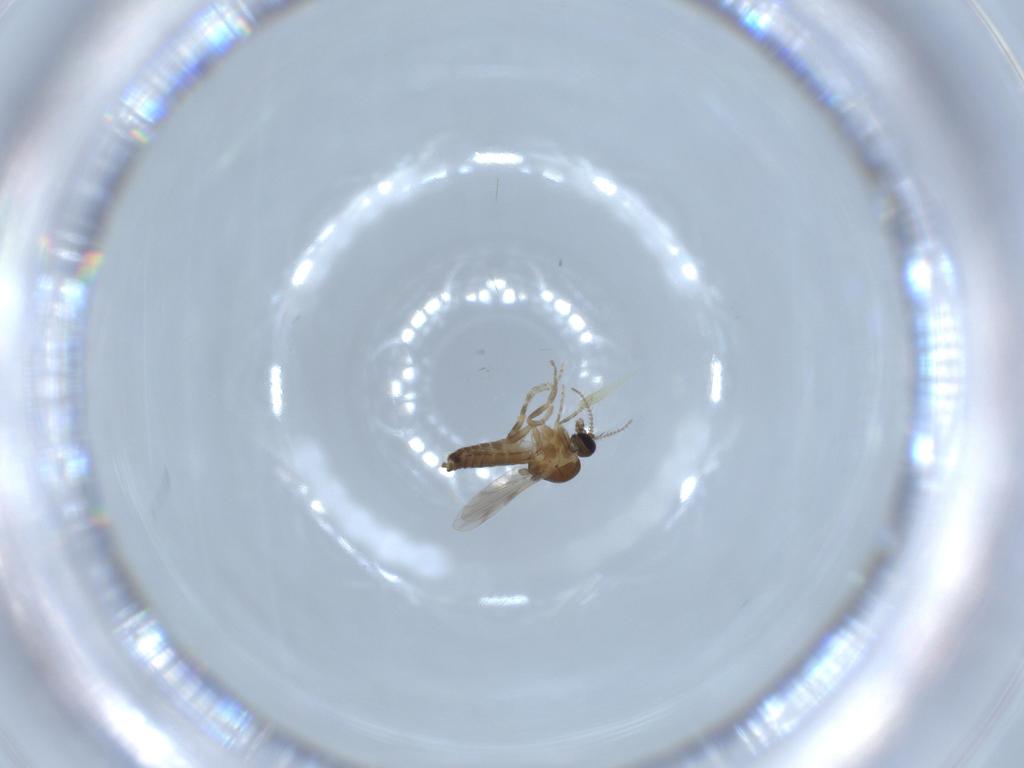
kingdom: Animalia
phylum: Arthropoda
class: Insecta
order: Diptera
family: Ceratopogonidae
